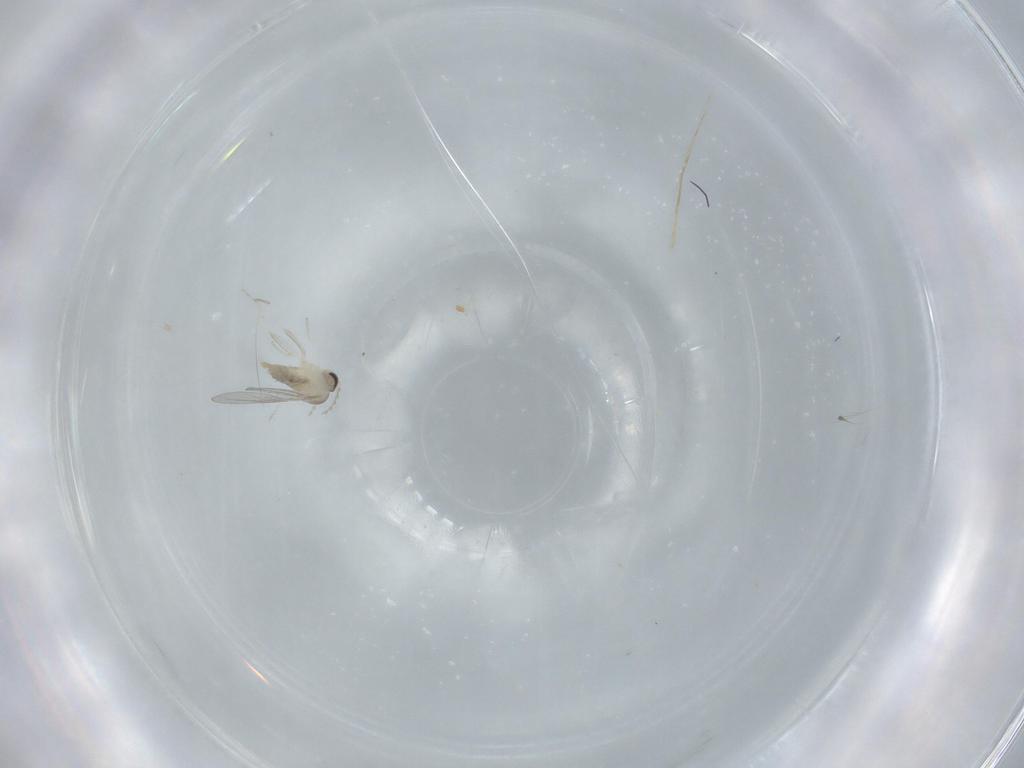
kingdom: Animalia
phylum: Arthropoda
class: Insecta
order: Diptera
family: Cecidomyiidae
